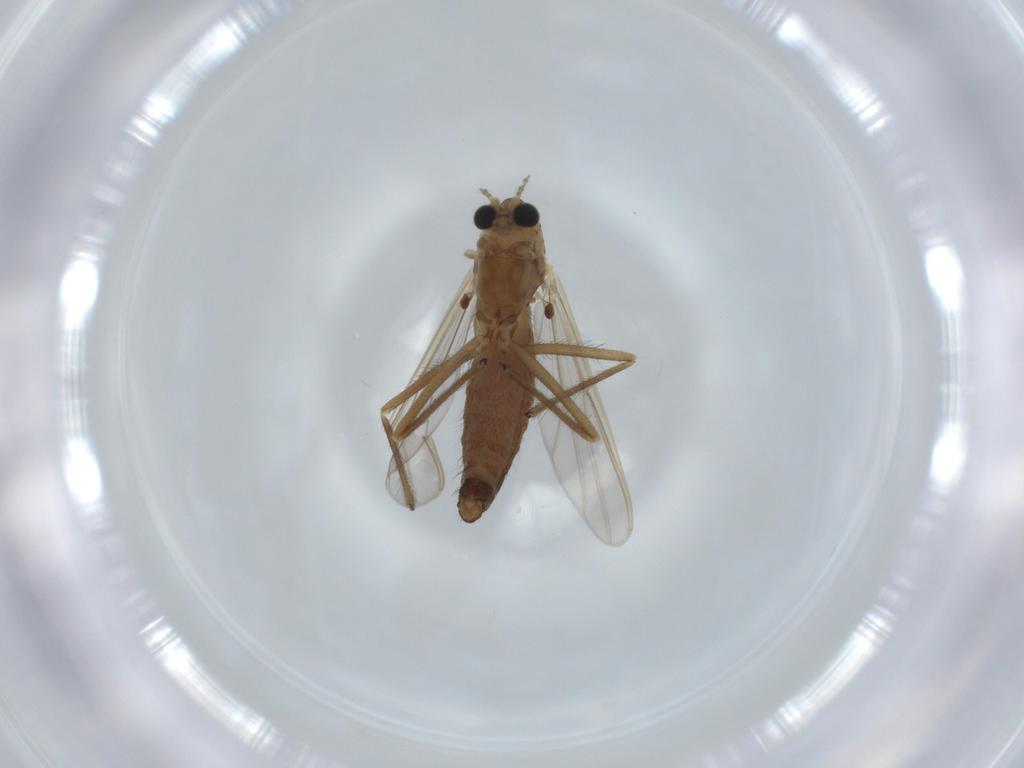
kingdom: Animalia
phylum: Arthropoda
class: Insecta
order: Diptera
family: Chironomidae
